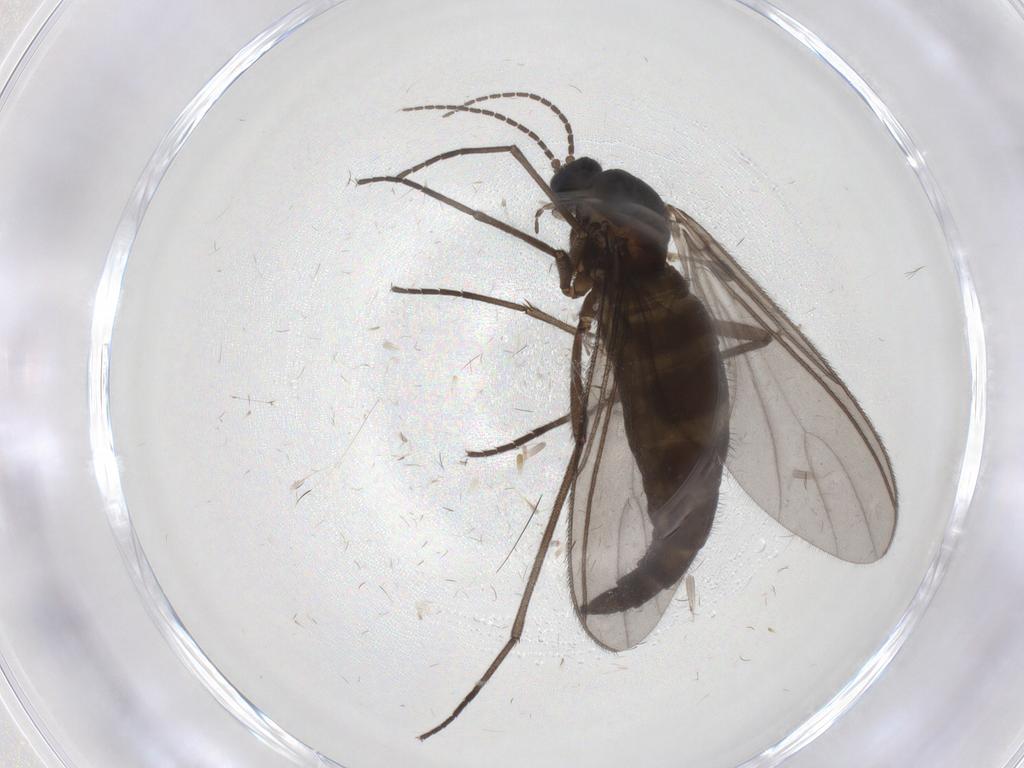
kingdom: Animalia
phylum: Arthropoda
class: Insecta
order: Diptera
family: Sciaridae
